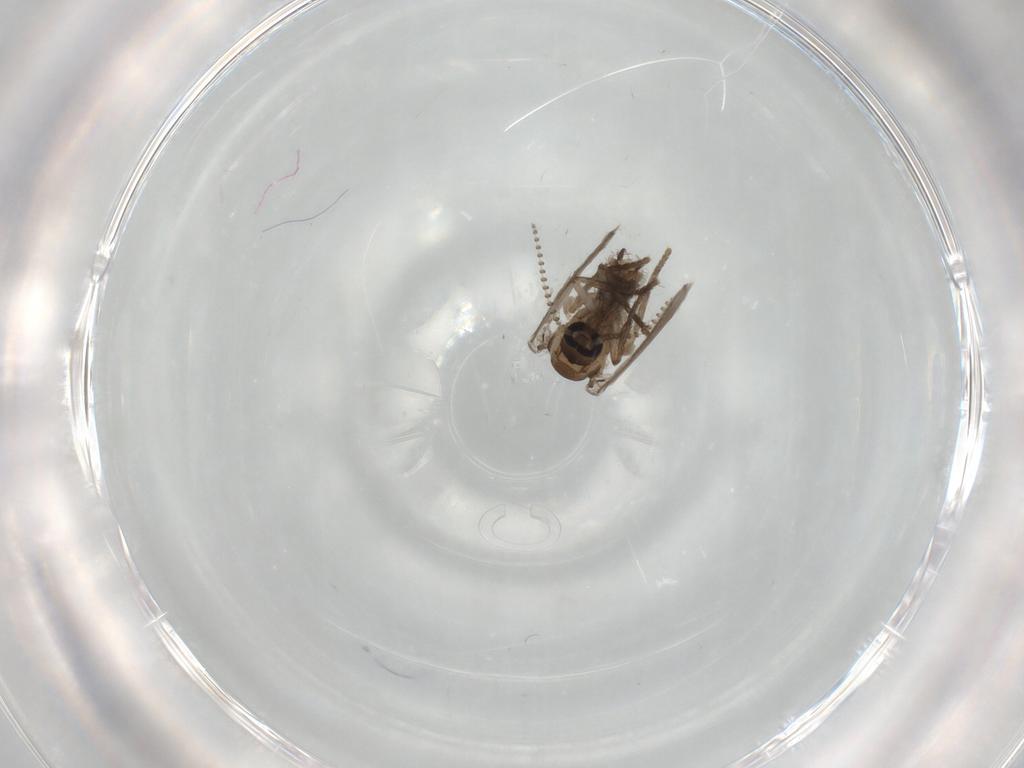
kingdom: Animalia
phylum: Arthropoda
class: Insecta
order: Diptera
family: Psychodidae
